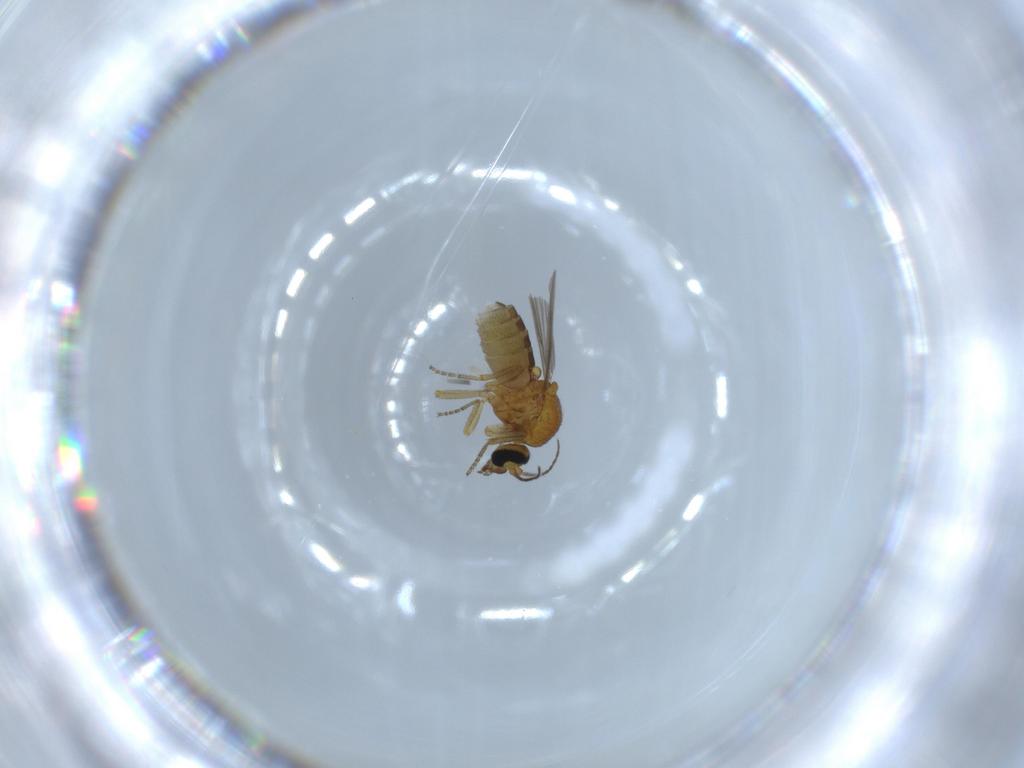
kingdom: Animalia
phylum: Arthropoda
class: Insecta
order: Diptera
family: Ceratopogonidae
